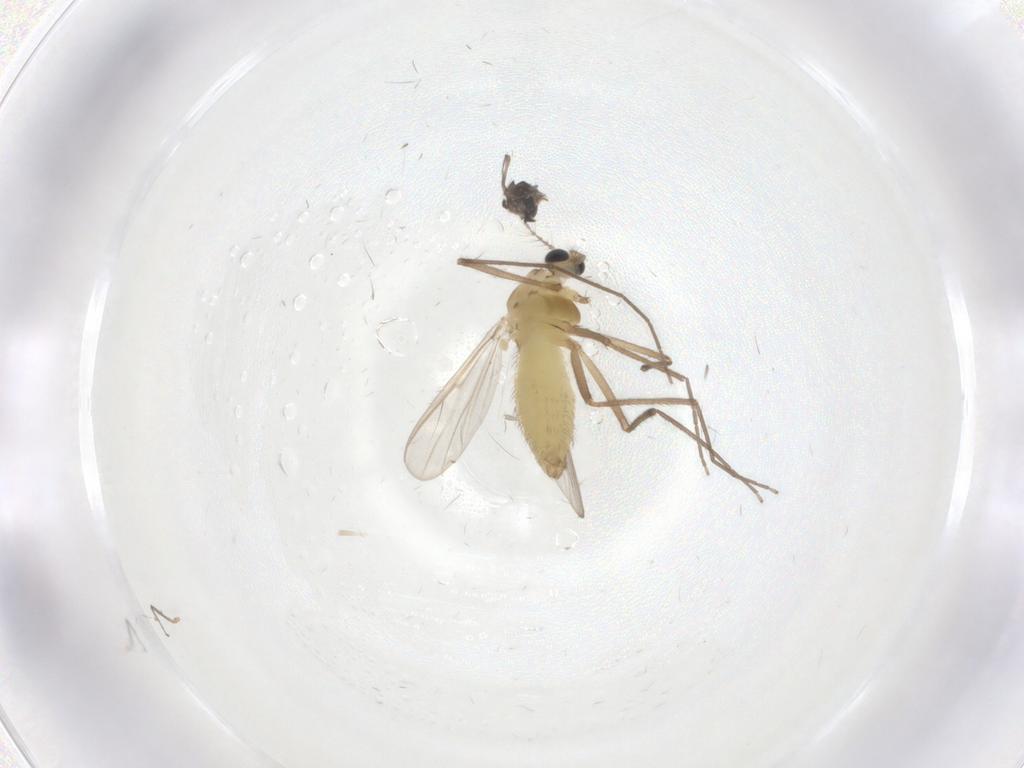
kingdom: Animalia
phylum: Arthropoda
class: Insecta
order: Diptera
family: Chironomidae
